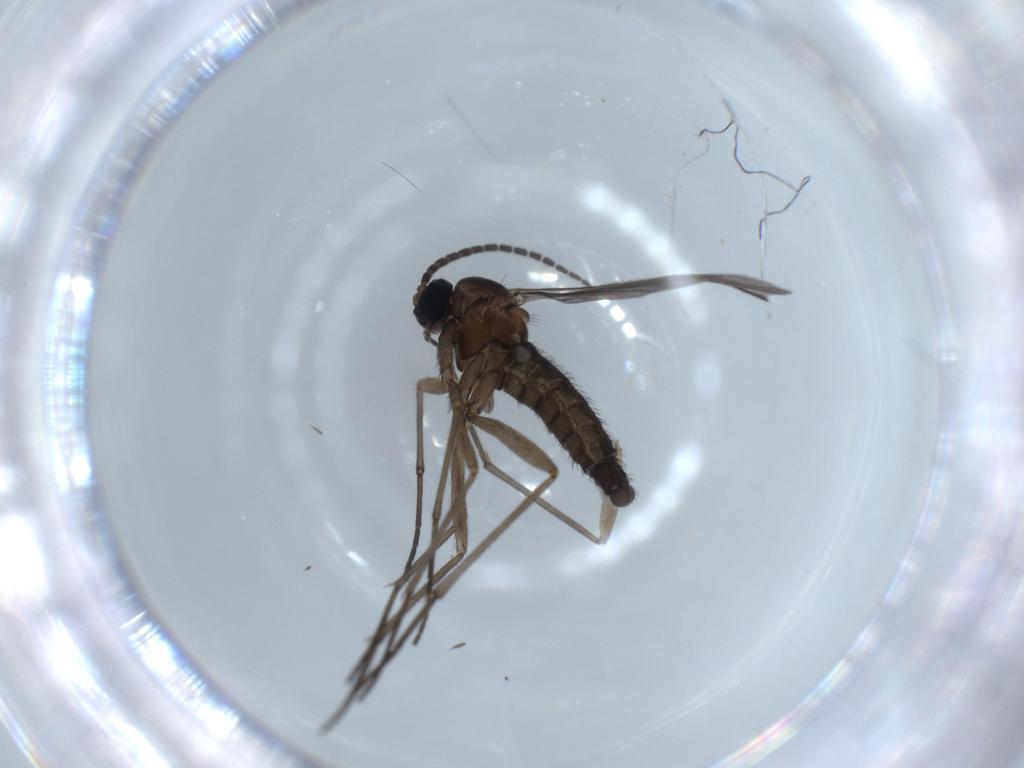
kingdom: Animalia
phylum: Arthropoda
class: Insecta
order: Diptera
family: Sciaridae
